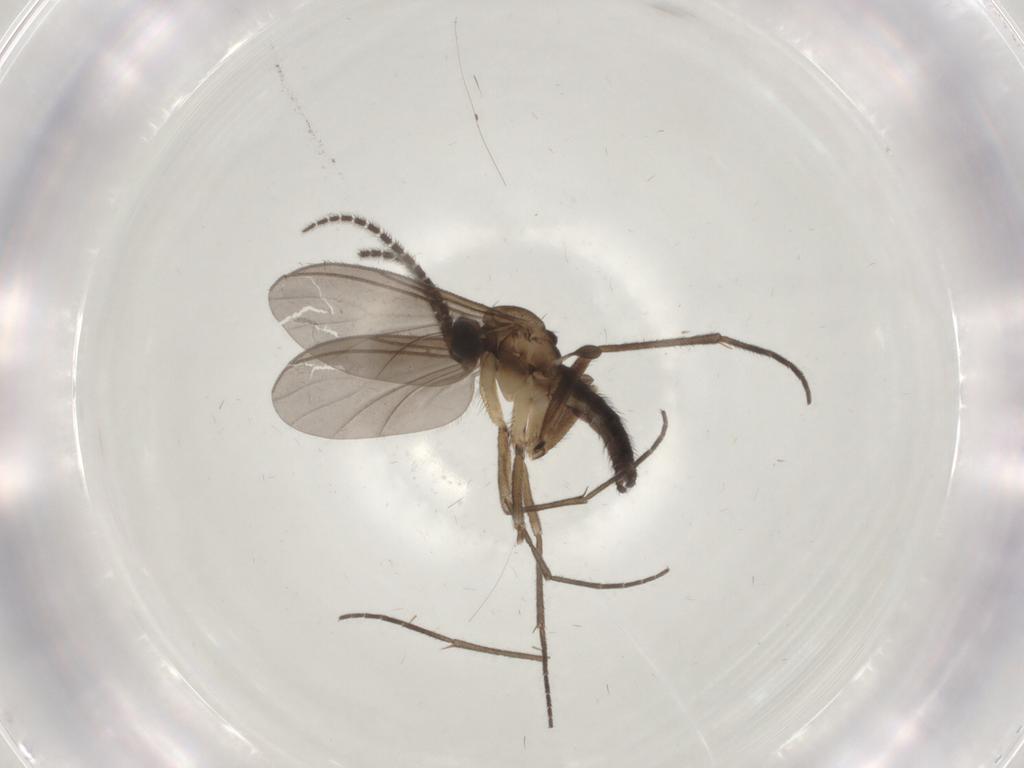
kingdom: Animalia
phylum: Arthropoda
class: Insecta
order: Diptera
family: Sciaridae
